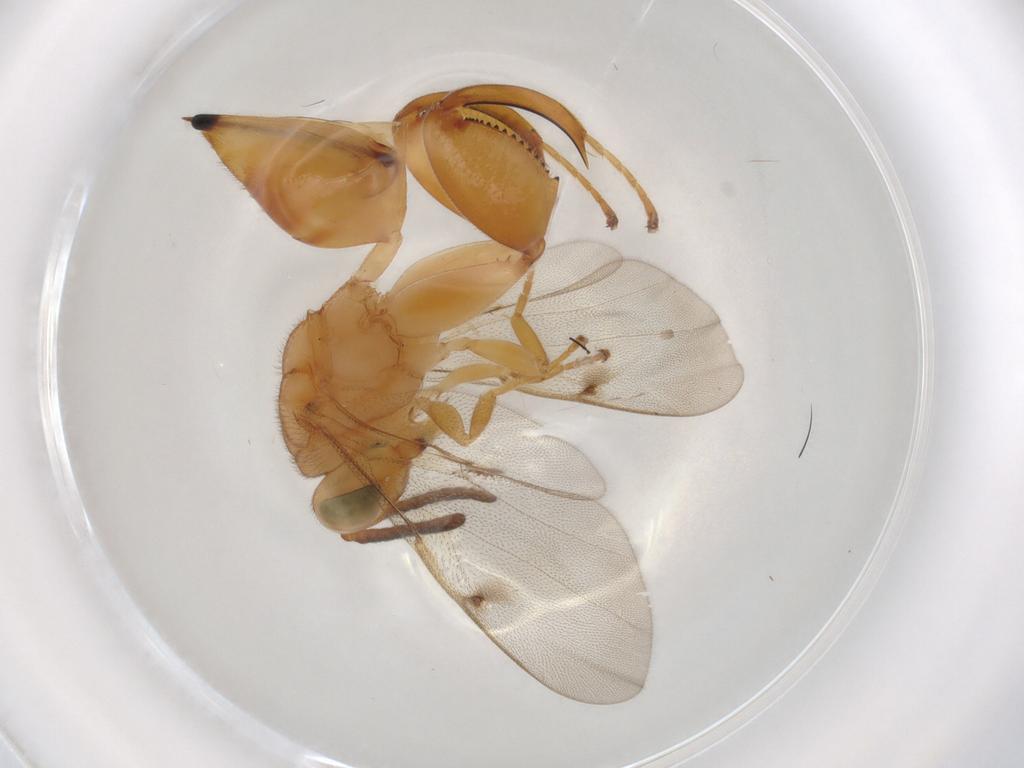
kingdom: Animalia
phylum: Arthropoda
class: Insecta
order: Hymenoptera
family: Chalcididae
